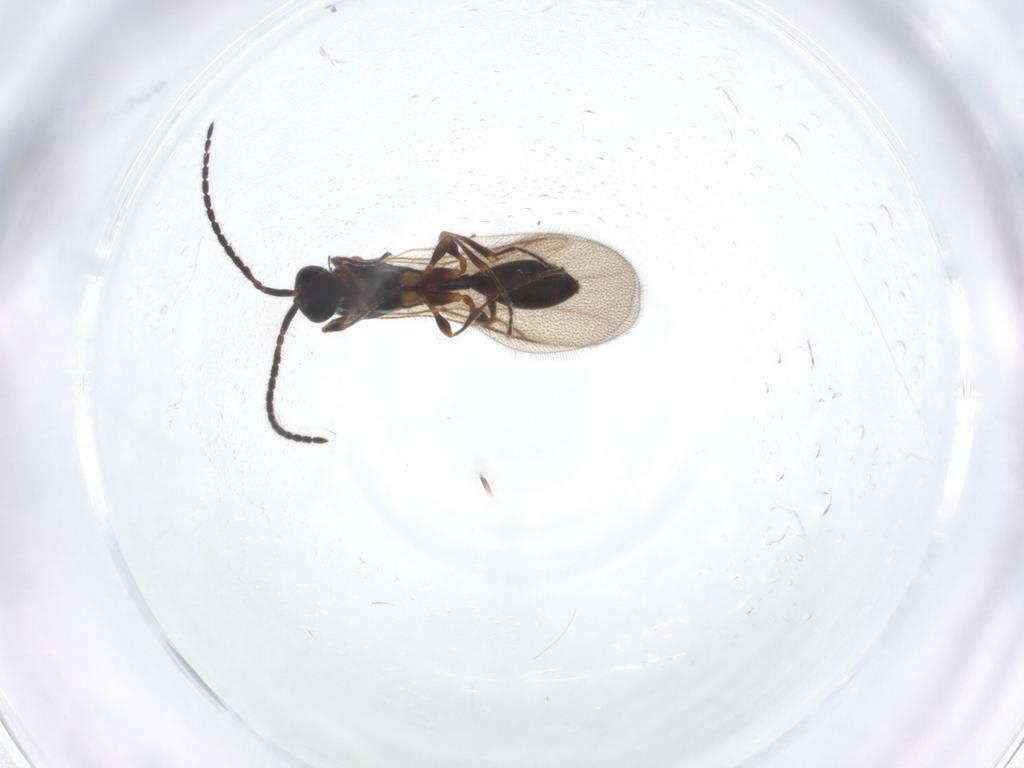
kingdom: Animalia
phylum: Arthropoda
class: Insecta
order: Hymenoptera
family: Diapriidae
